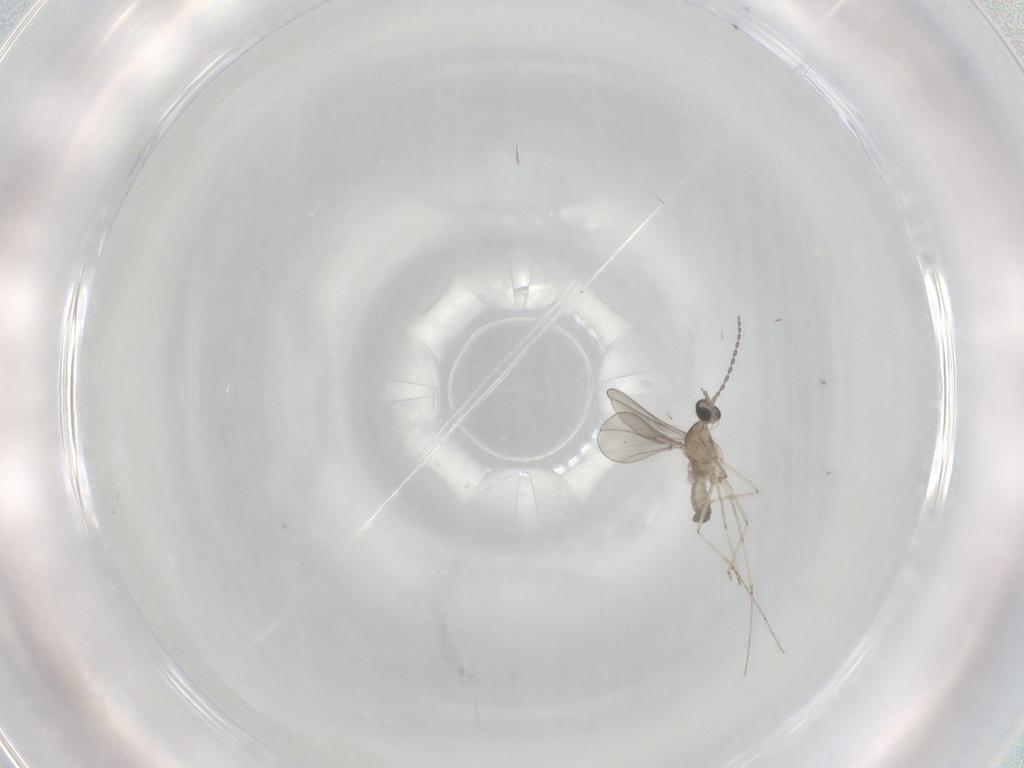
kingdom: Animalia
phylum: Arthropoda
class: Insecta
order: Diptera
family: Cecidomyiidae
